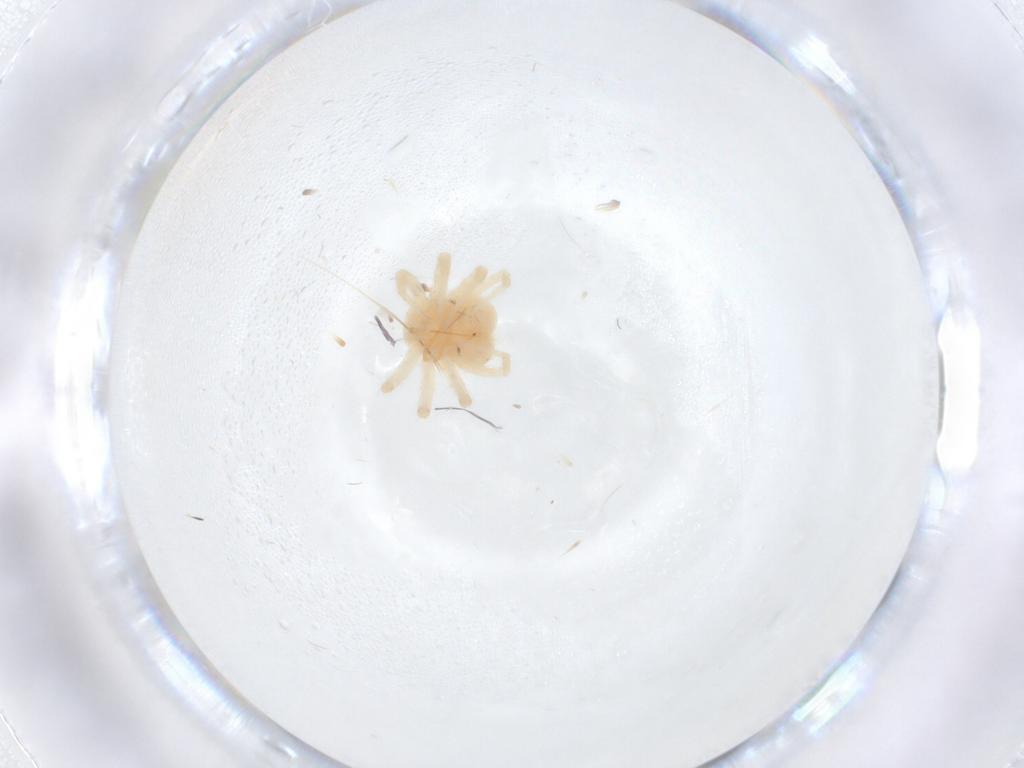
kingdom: Animalia
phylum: Arthropoda
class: Arachnida
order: Trombidiformes
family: Anystidae
